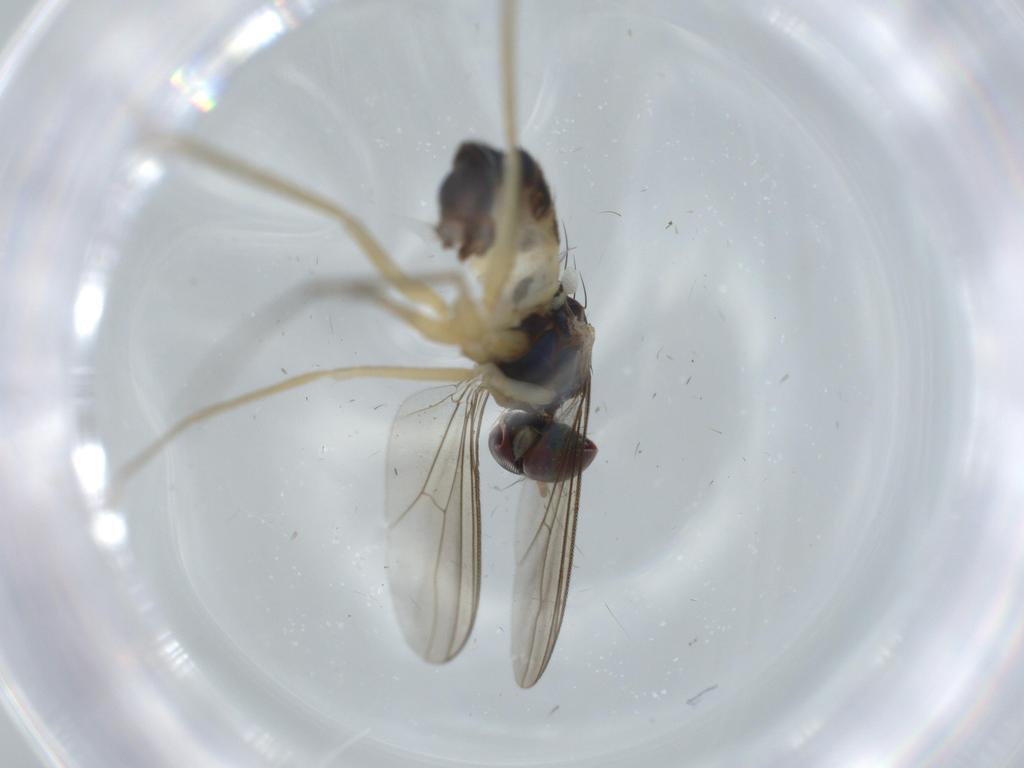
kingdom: Animalia
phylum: Arthropoda
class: Insecta
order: Diptera
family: Dolichopodidae
